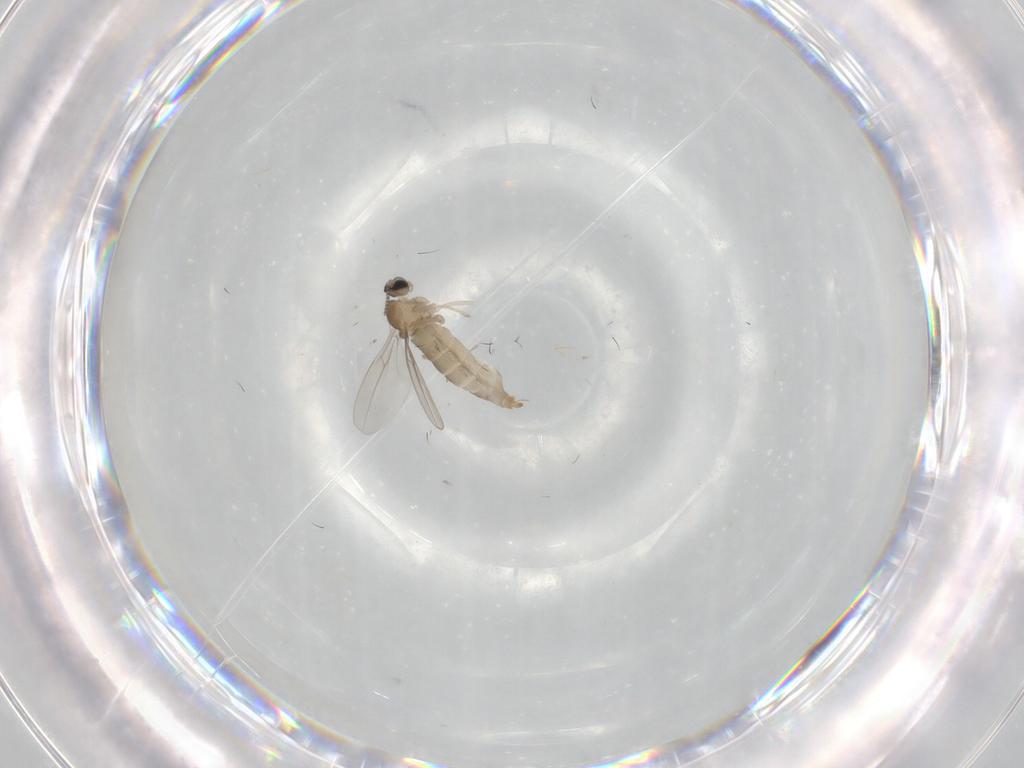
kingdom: Animalia
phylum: Arthropoda
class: Insecta
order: Diptera
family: Cecidomyiidae
